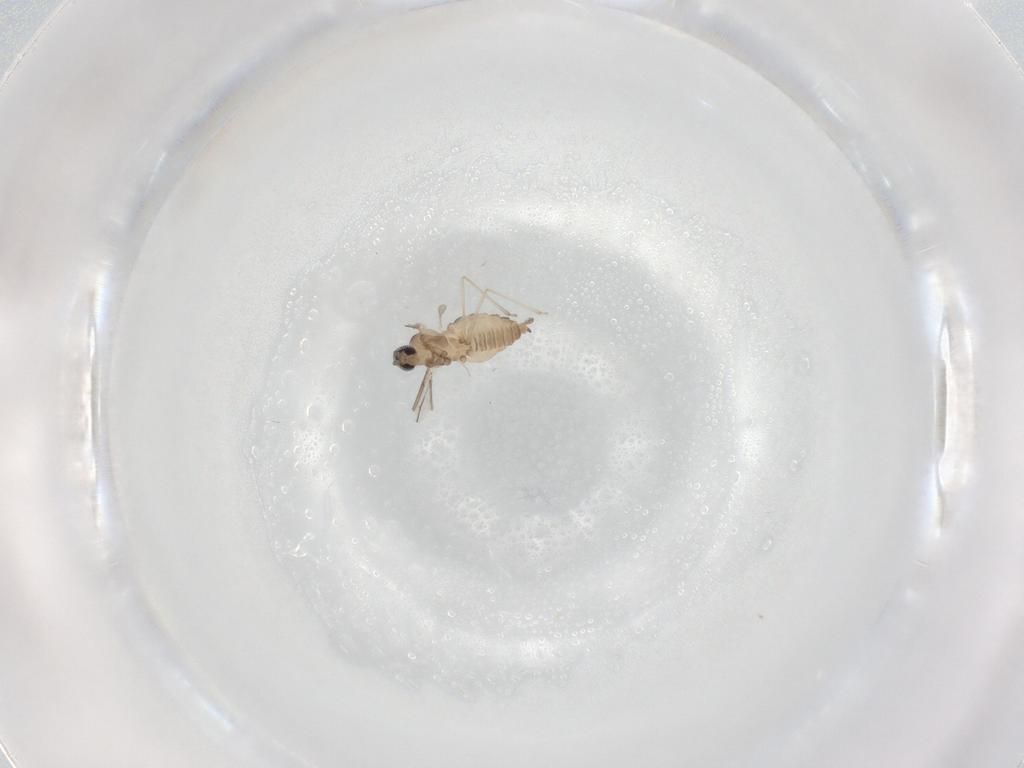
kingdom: Animalia
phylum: Arthropoda
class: Insecta
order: Diptera
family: Cecidomyiidae
